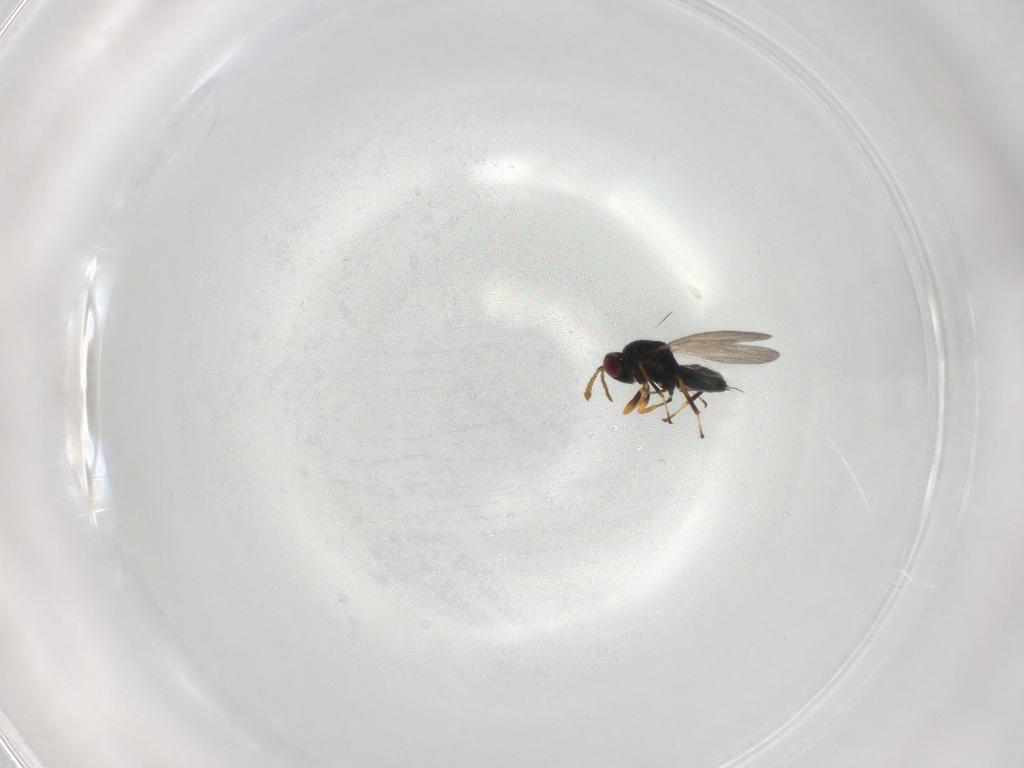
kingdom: Animalia
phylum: Arthropoda
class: Insecta
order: Hymenoptera
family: Eulophidae
